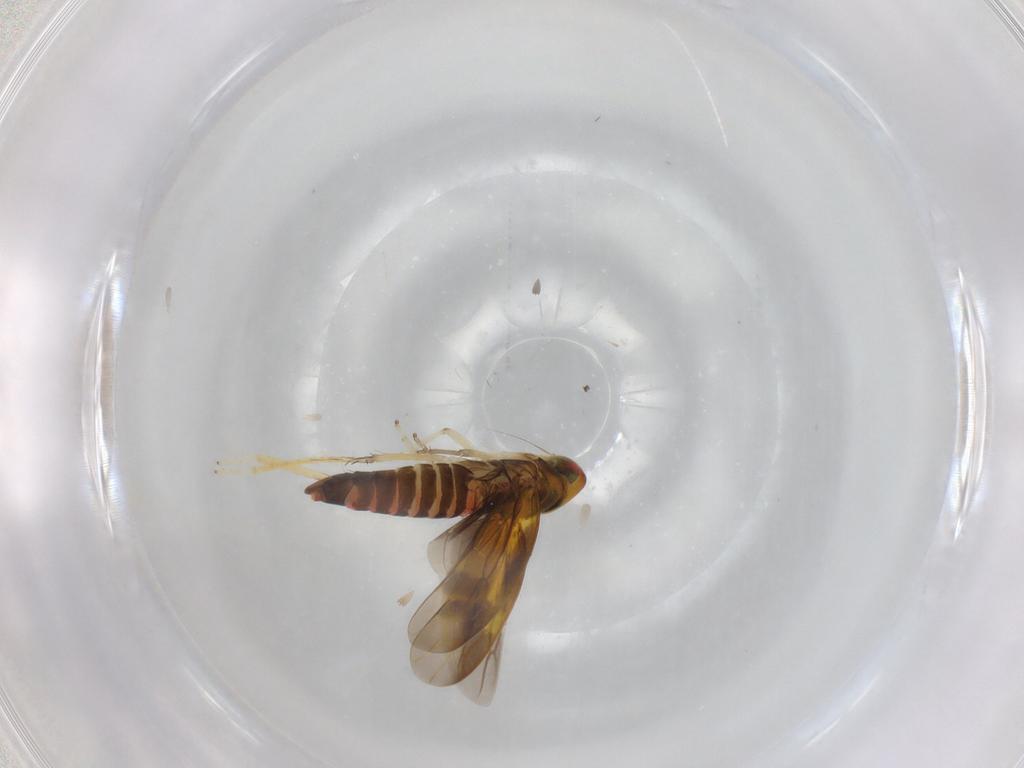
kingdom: Animalia
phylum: Arthropoda
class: Insecta
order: Hemiptera
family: Cicadellidae
